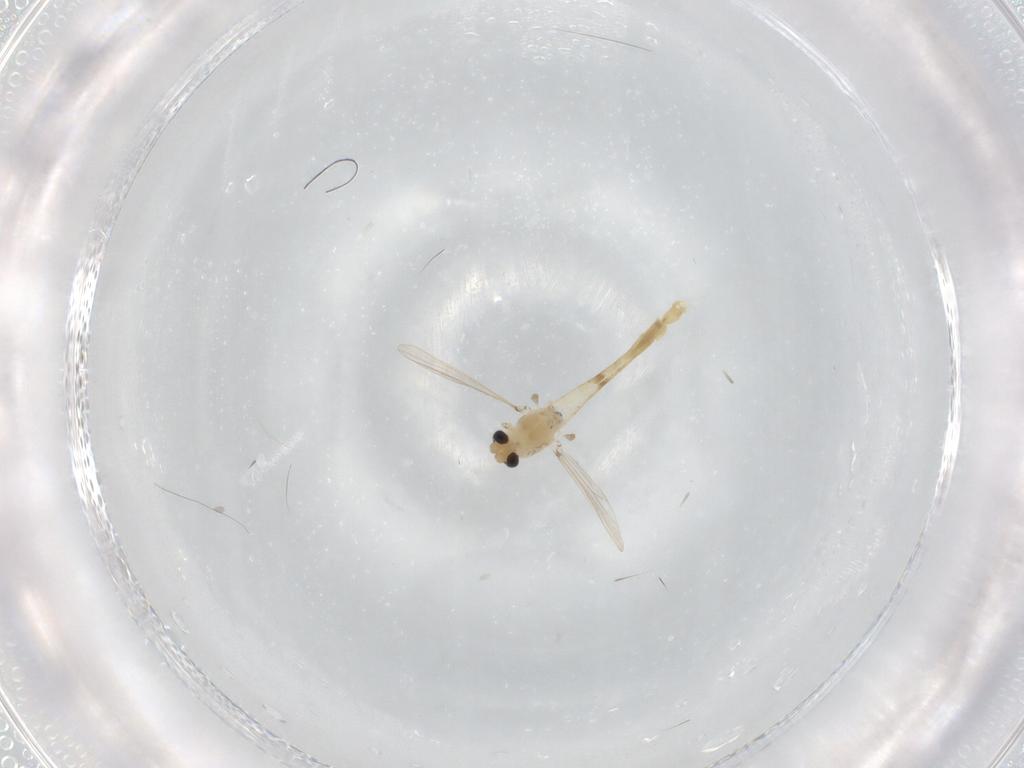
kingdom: Animalia
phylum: Arthropoda
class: Insecta
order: Diptera
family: Chironomidae
